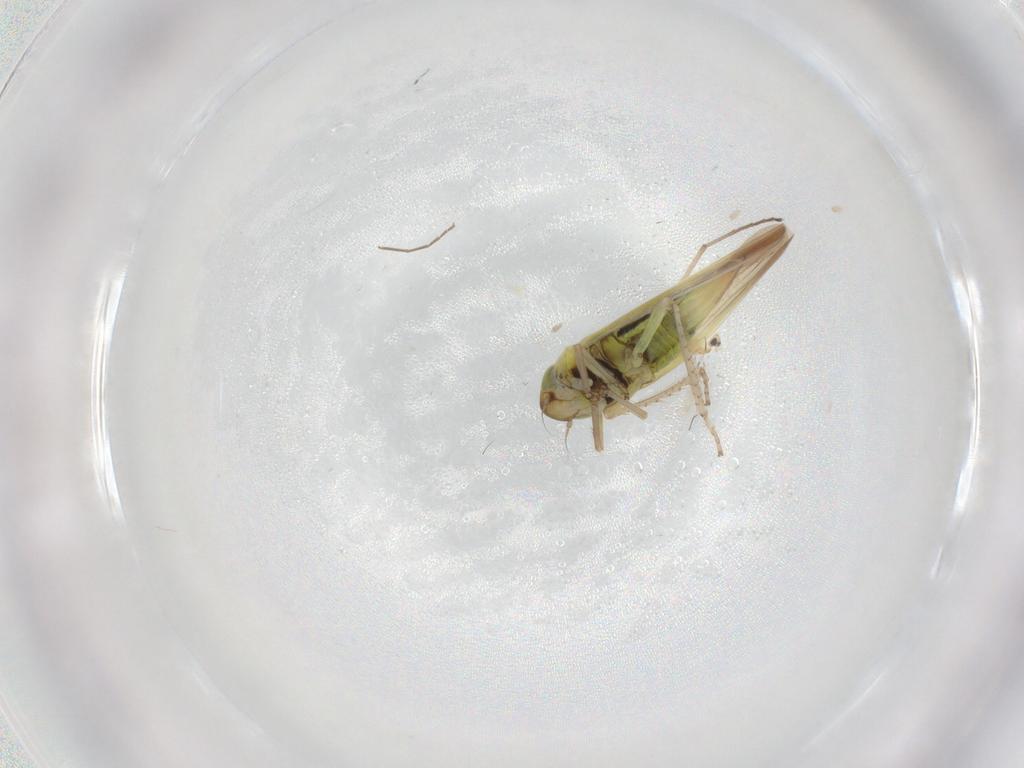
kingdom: Animalia
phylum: Arthropoda
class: Insecta
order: Hemiptera
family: Cicadellidae
